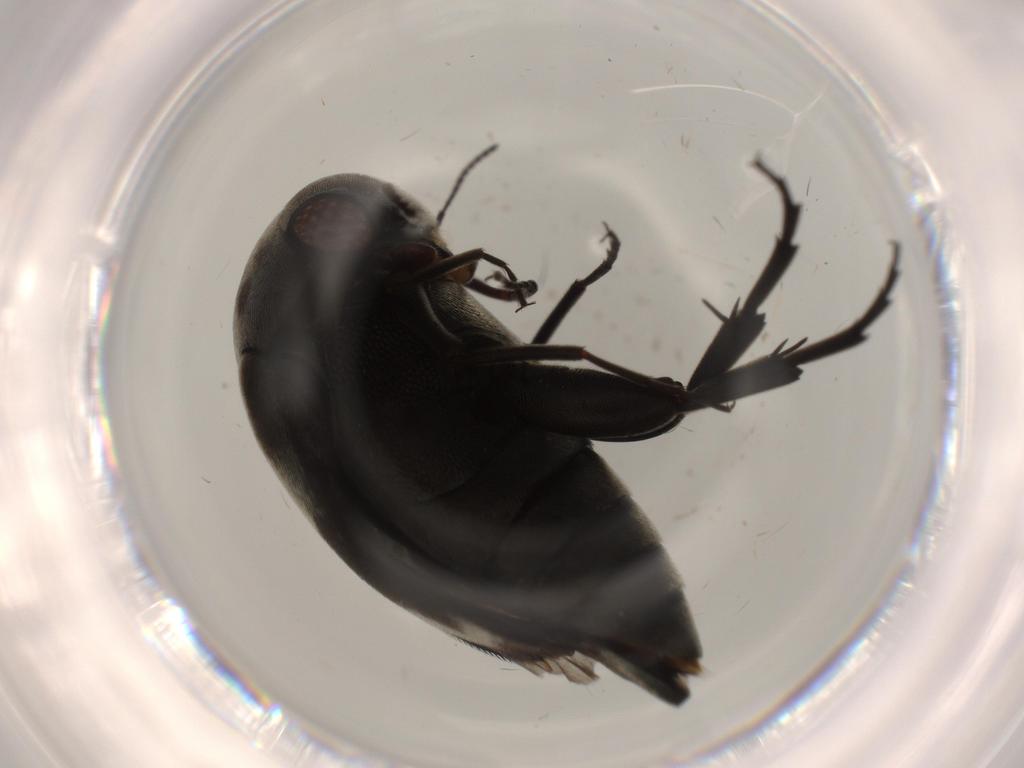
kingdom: Animalia
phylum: Arthropoda
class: Insecta
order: Coleoptera
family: Mordellidae
